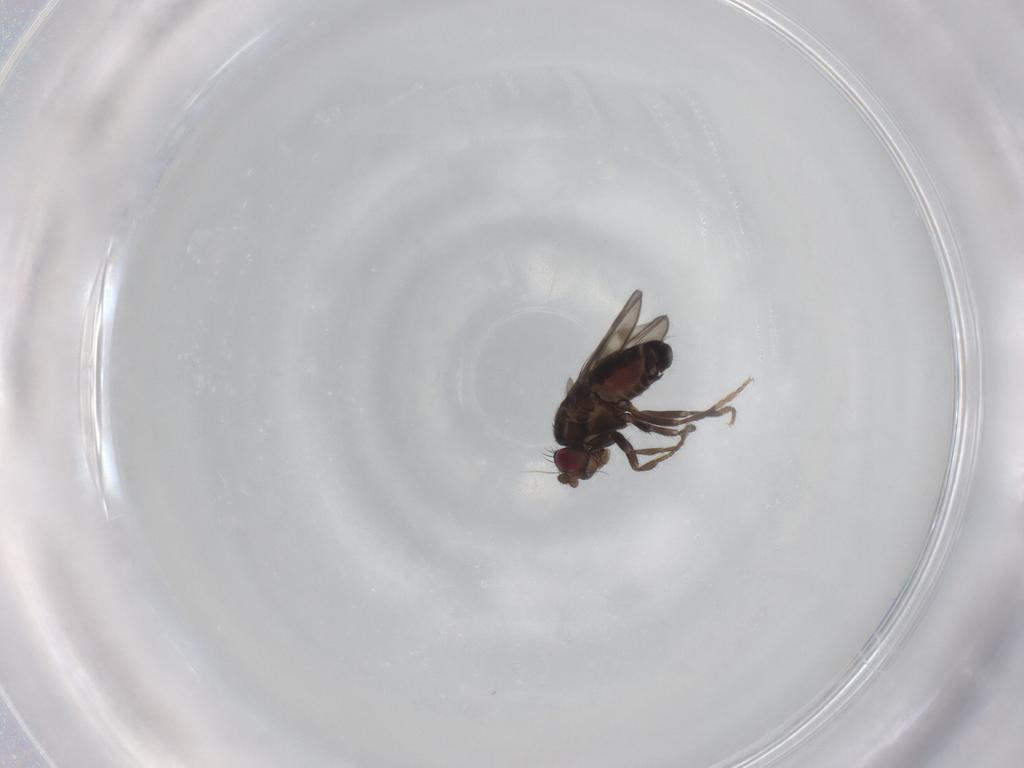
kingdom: Animalia
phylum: Arthropoda
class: Insecta
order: Diptera
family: Sphaeroceridae
